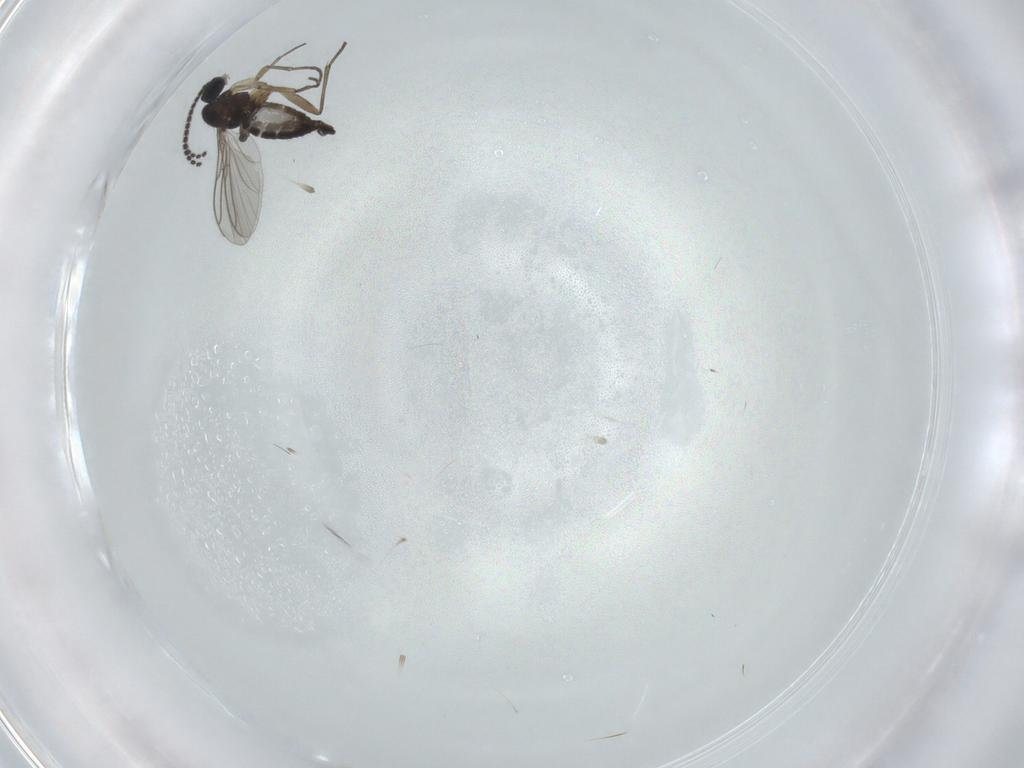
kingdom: Animalia
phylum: Arthropoda
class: Insecta
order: Diptera
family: Sciaridae
